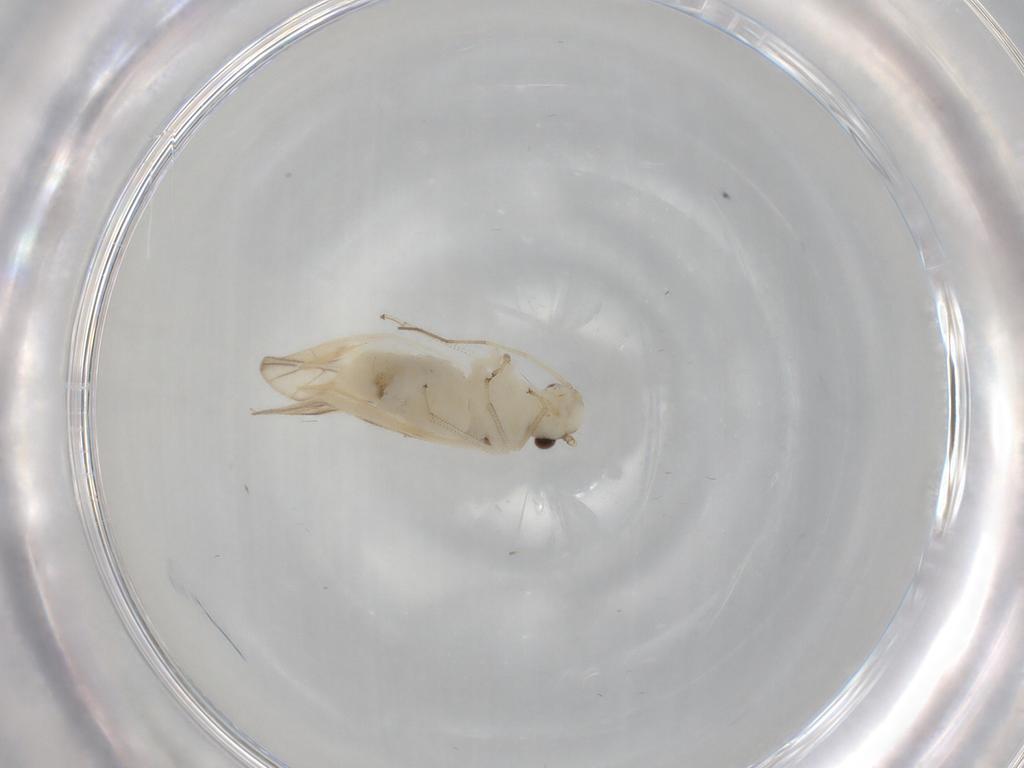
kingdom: Animalia
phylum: Arthropoda
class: Insecta
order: Psocodea
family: Caeciliusidae
